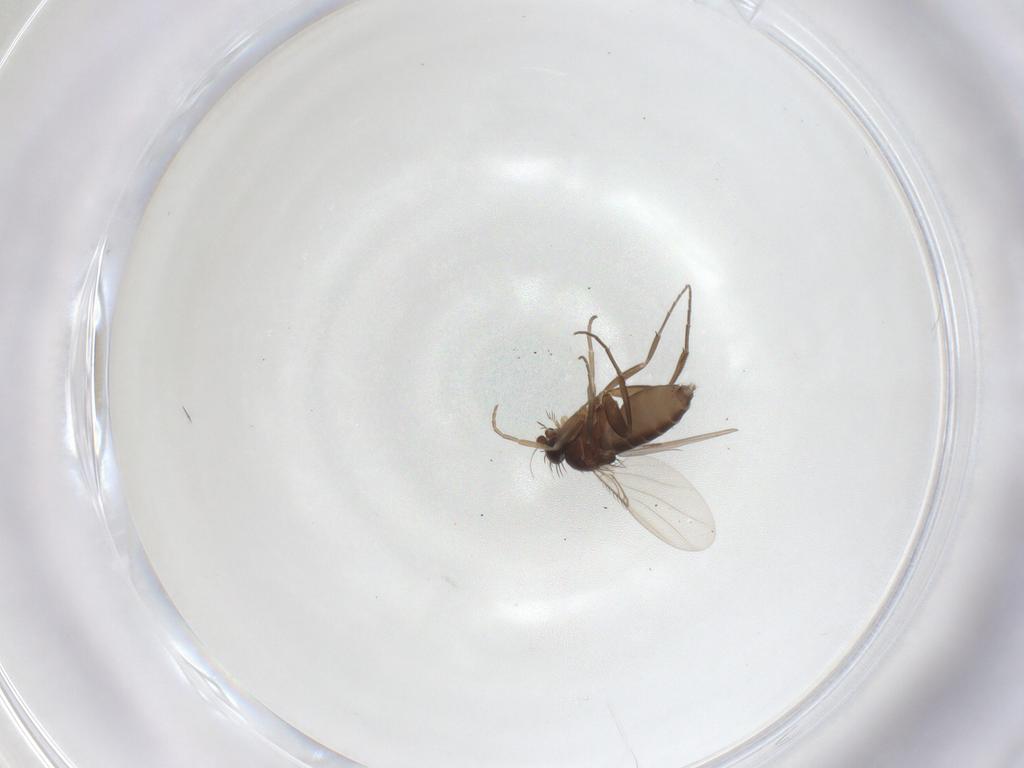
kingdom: Animalia
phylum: Arthropoda
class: Insecta
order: Diptera
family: Phoridae
